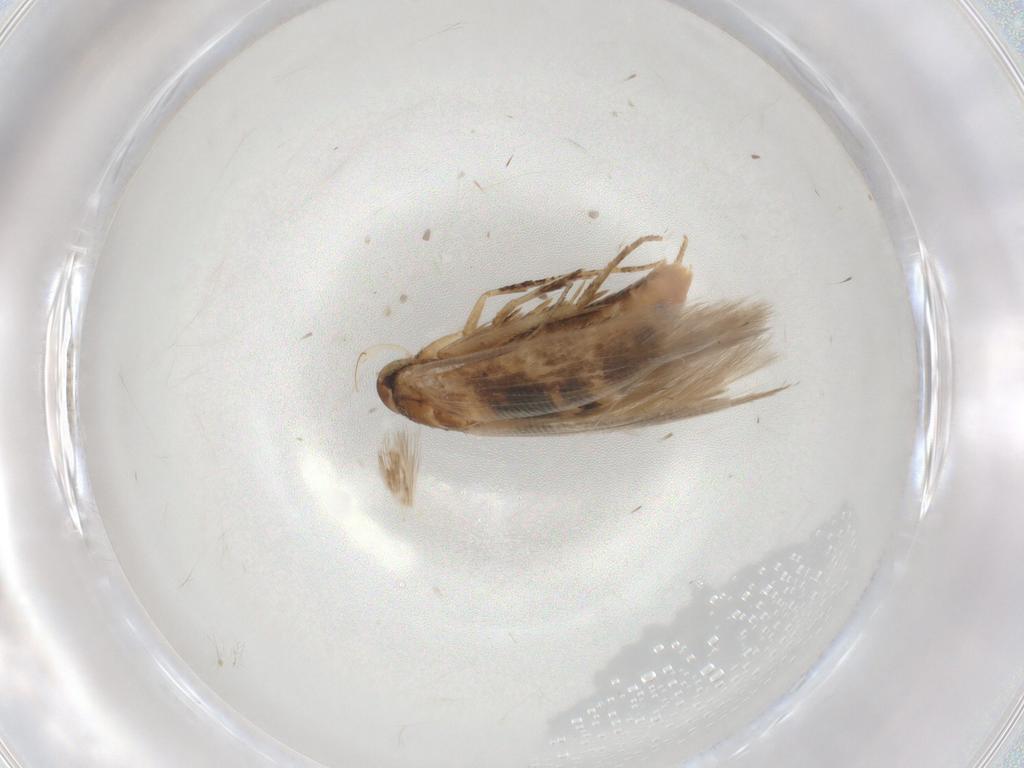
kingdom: Animalia
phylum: Arthropoda
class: Insecta
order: Lepidoptera
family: Cosmopterigidae
